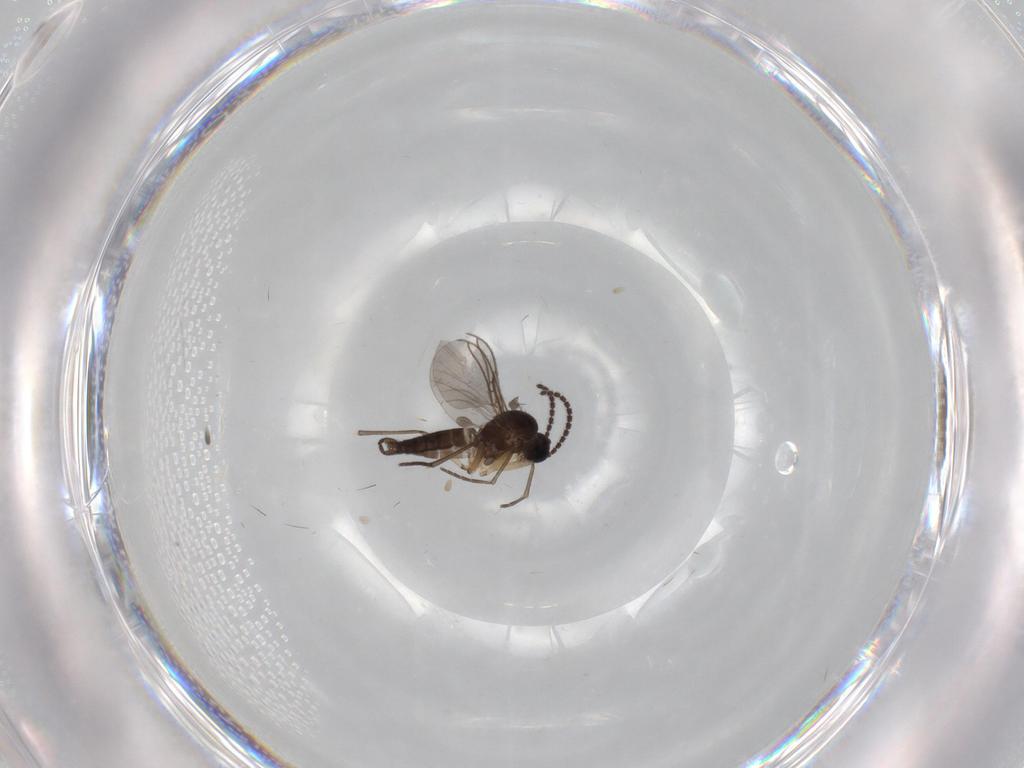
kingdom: Animalia
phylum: Arthropoda
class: Insecta
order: Diptera
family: Sciaridae
